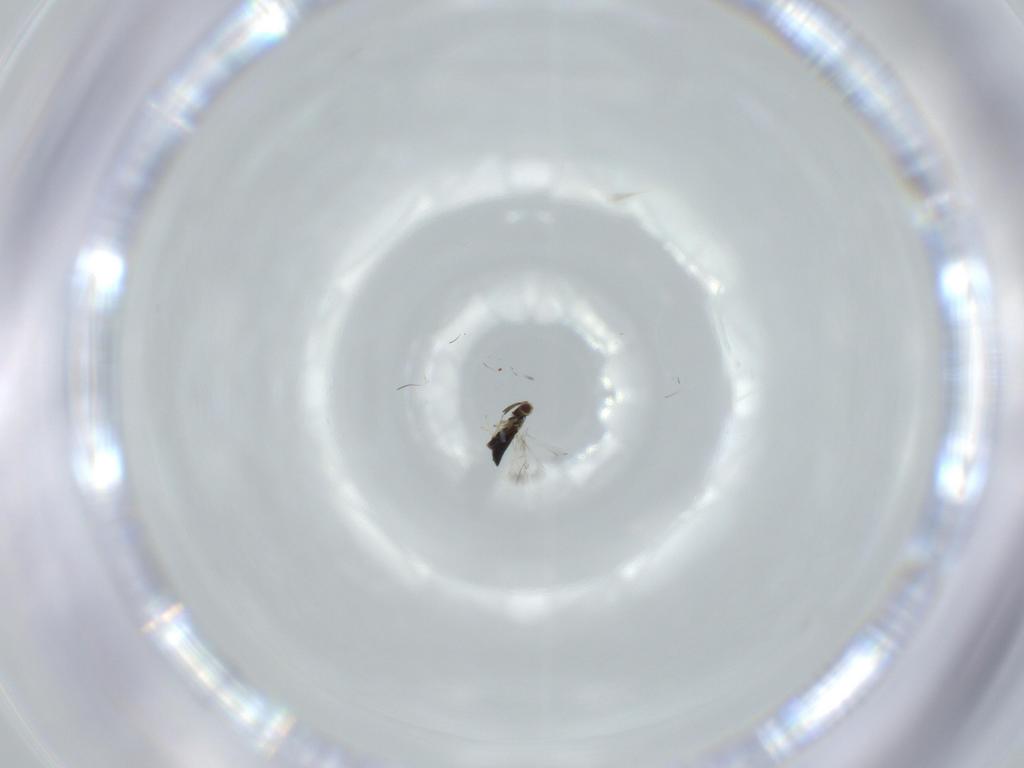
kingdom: Animalia
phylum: Arthropoda
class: Insecta
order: Hymenoptera
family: Signiphoridae
